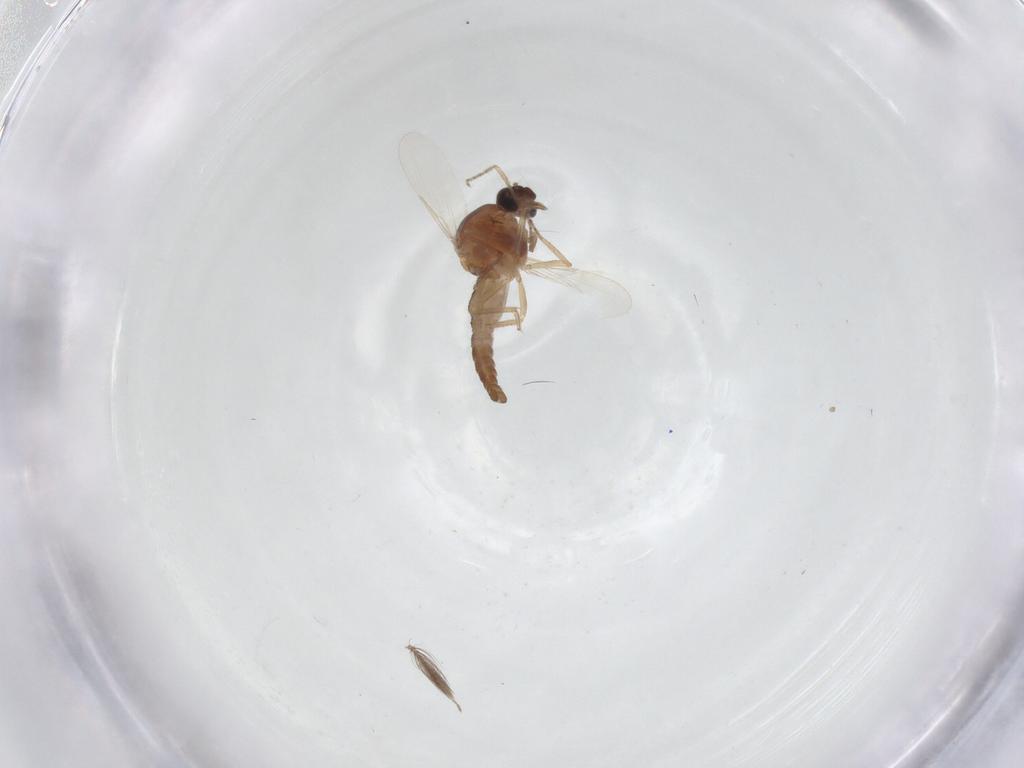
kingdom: Animalia
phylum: Arthropoda
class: Insecta
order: Diptera
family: Ceratopogonidae
